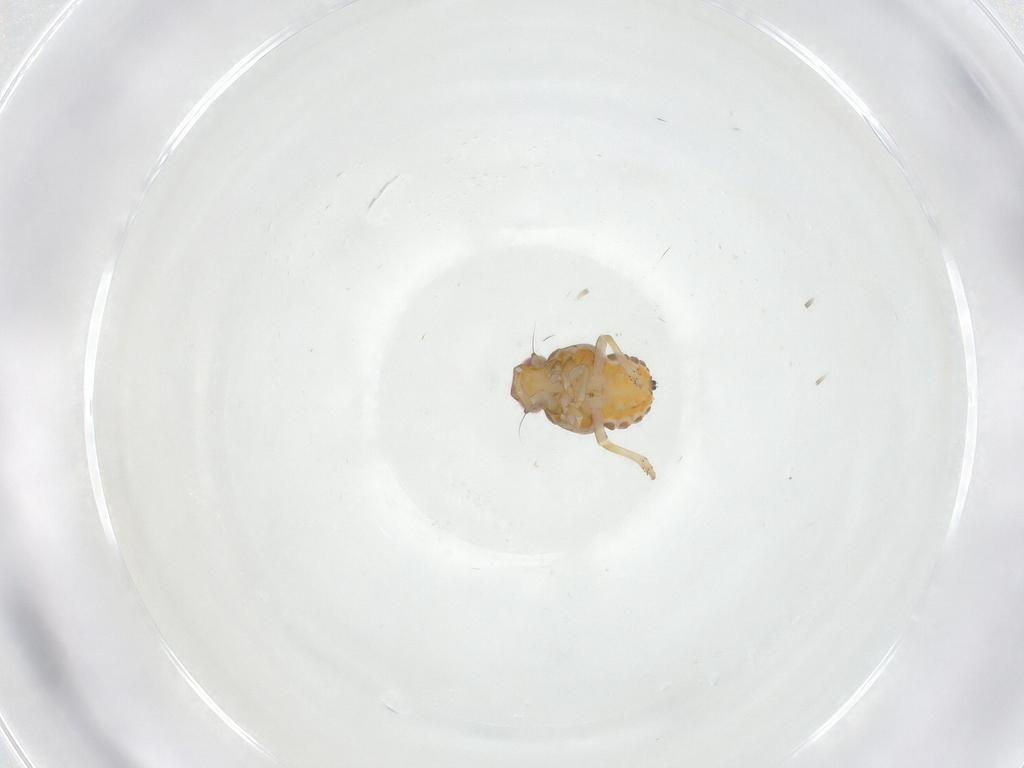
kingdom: Animalia
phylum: Arthropoda
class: Insecta
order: Hemiptera
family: Issidae
